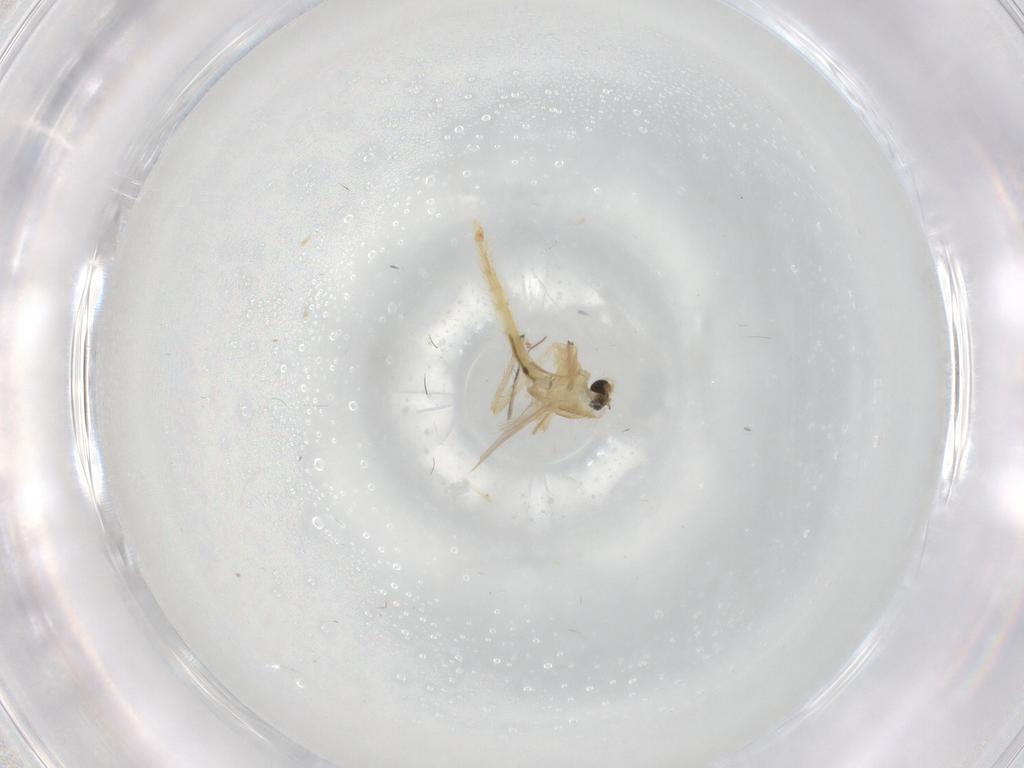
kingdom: Animalia
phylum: Arthropoda
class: Insecta
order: Diptera
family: Chironomidae
